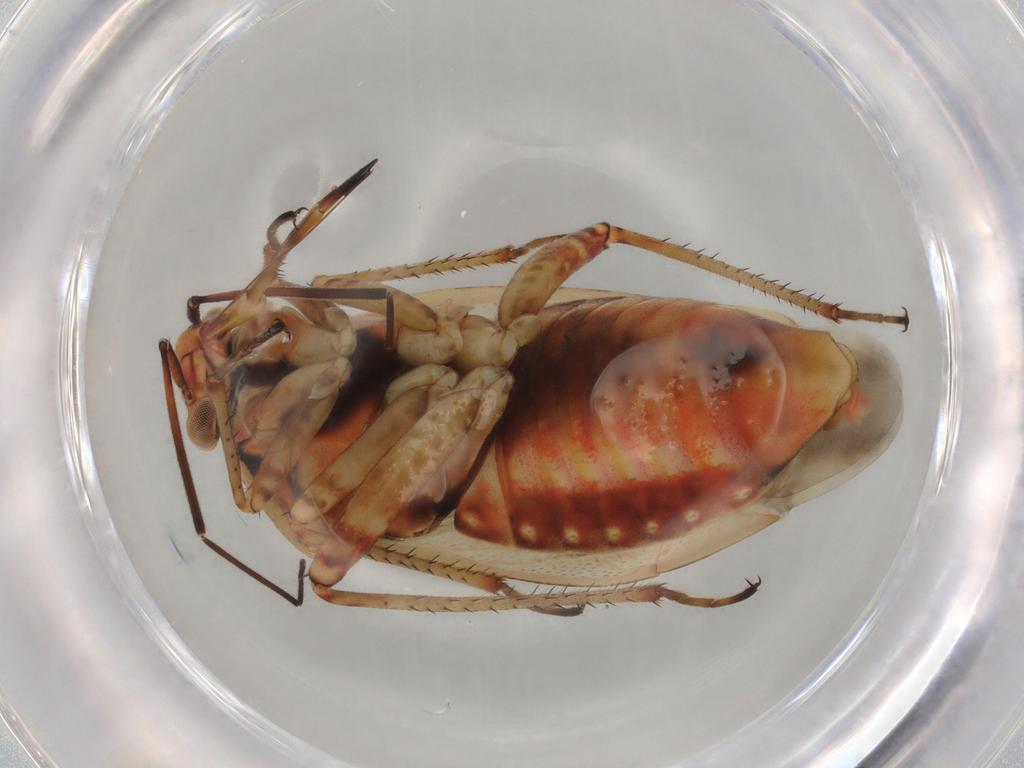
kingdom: Animalia
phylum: Arthropoda
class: Insecta
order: Hemiptera
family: Miridae
